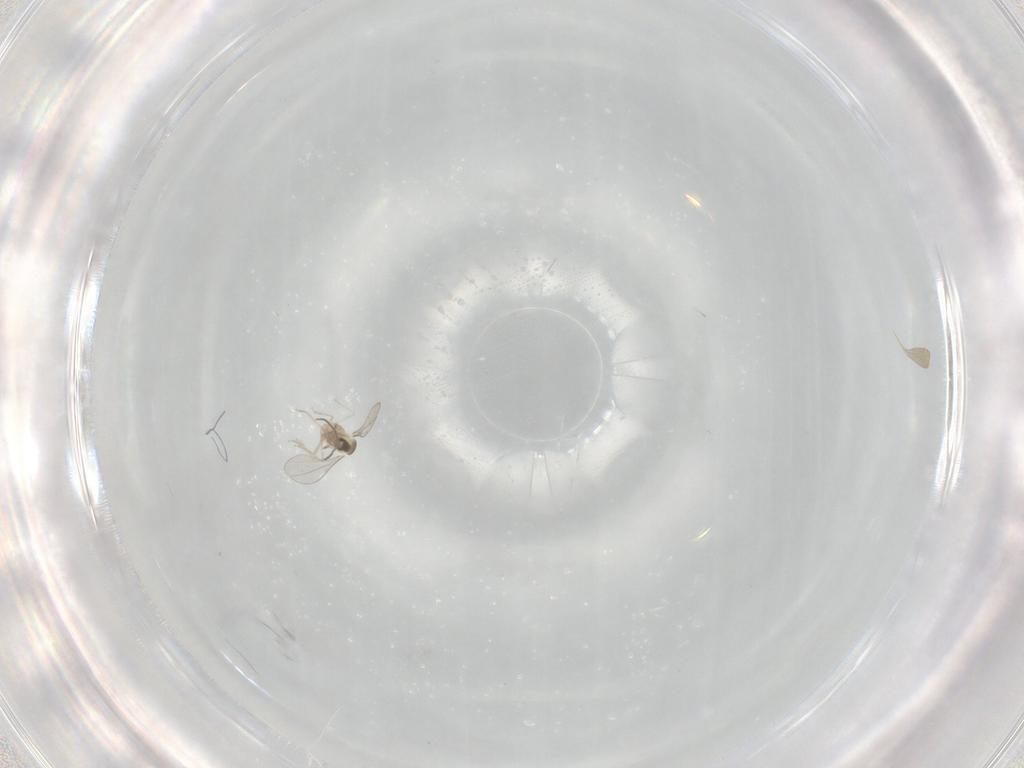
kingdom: Animalia
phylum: Arthropoda
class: Insecta
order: Diptera
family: Cecidomyiidae
